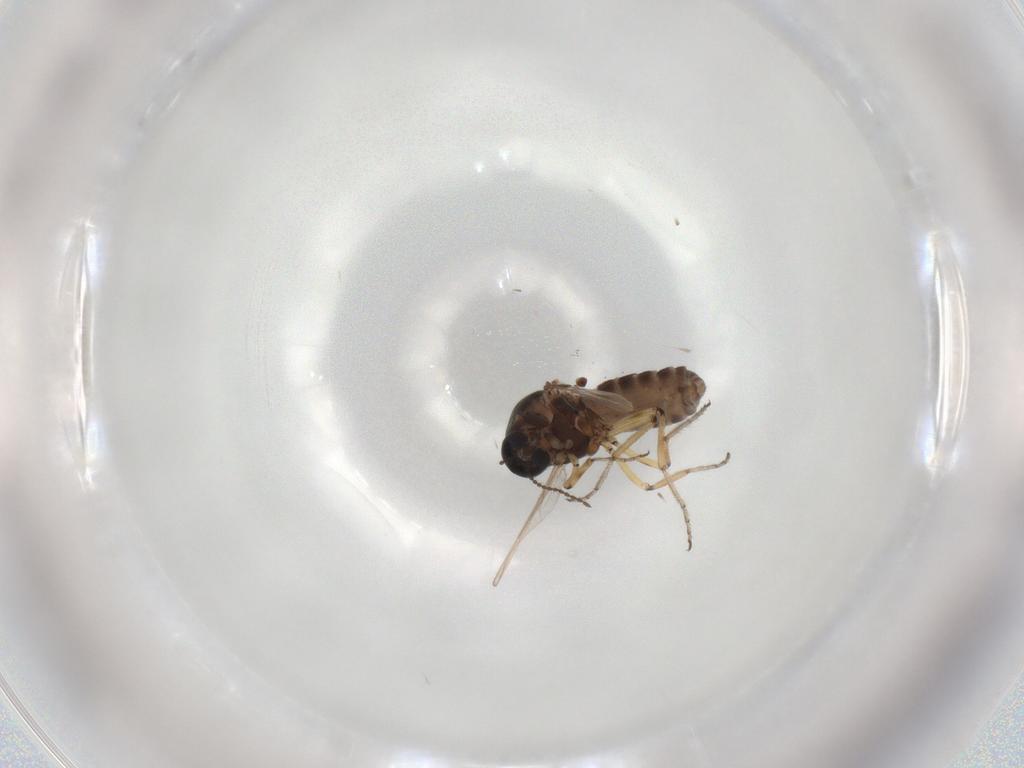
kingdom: Animalia
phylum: Arthropoda
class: Insecta
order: Diptera
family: Ceratopogonidae
